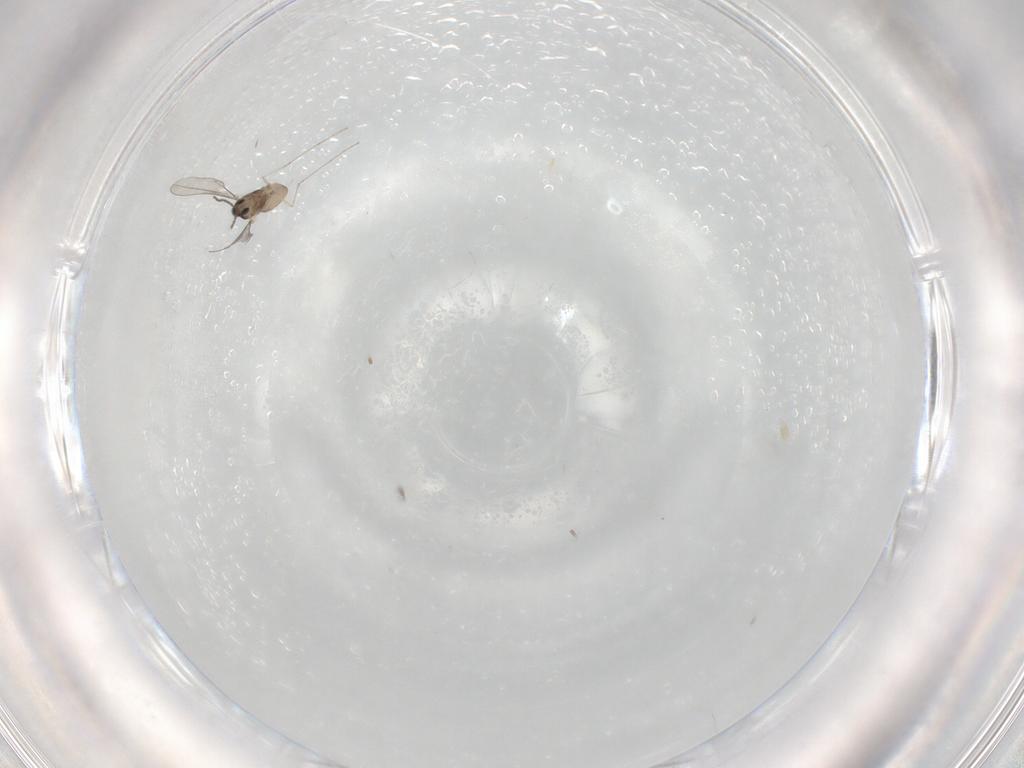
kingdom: Animalia
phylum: Arthropoda
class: Insecta
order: Diptera
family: Cecidomyiidae
